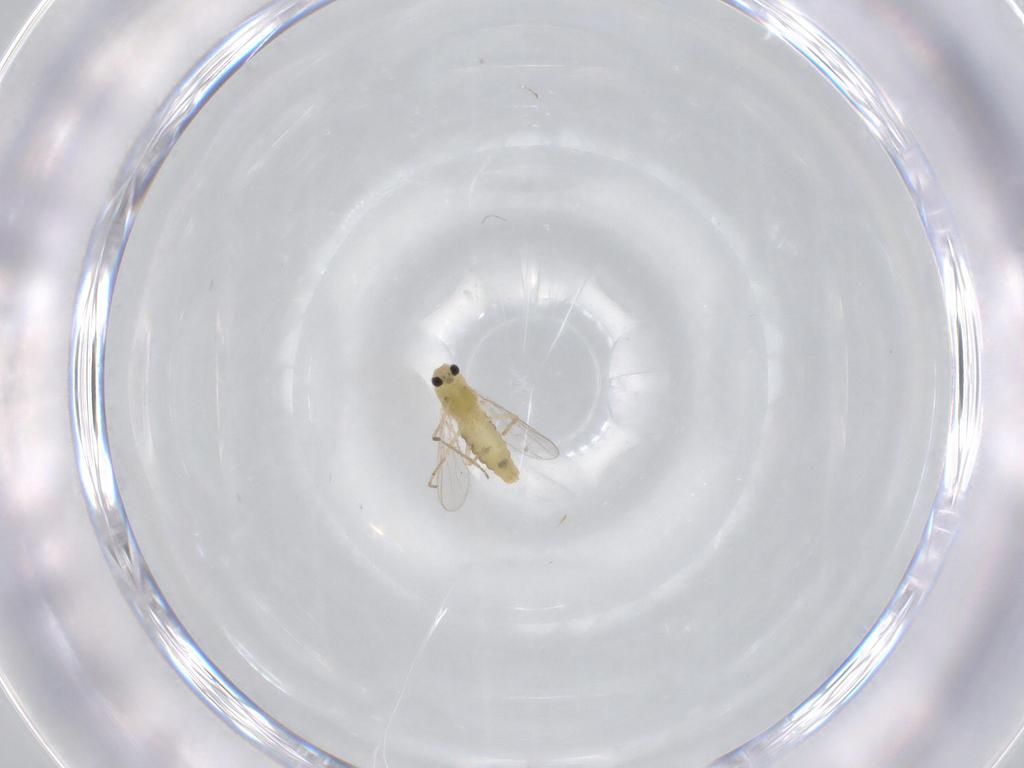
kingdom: Animalia
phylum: Arthropoda
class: Insecta
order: Diptera
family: Chironomidae
